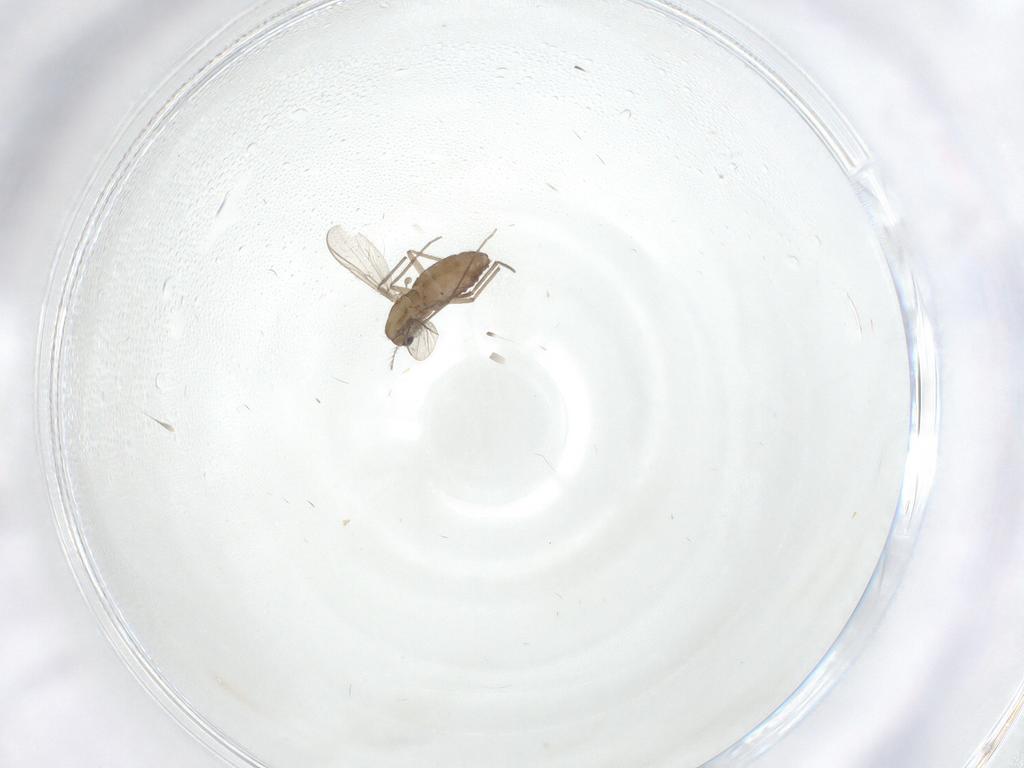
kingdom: Animalia
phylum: Arthropoda
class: Insecta
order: Diptera
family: Chironomidae
